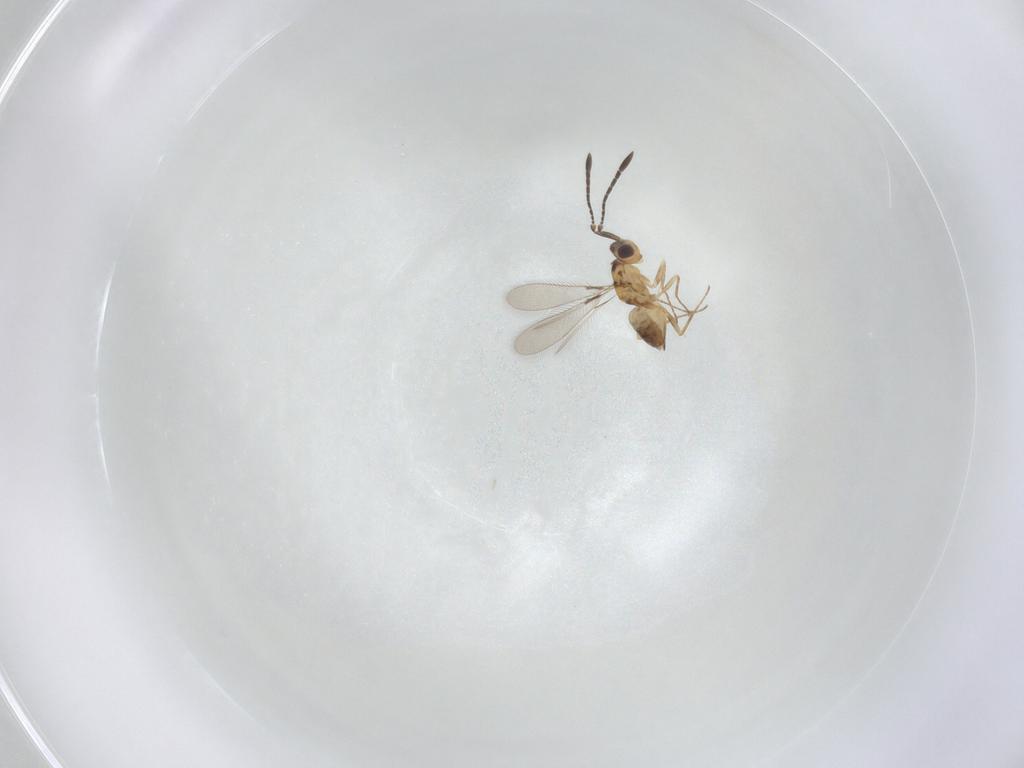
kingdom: Animalia
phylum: Arthropoda
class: Insecta
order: Hymenoptera
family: Mymaridae
